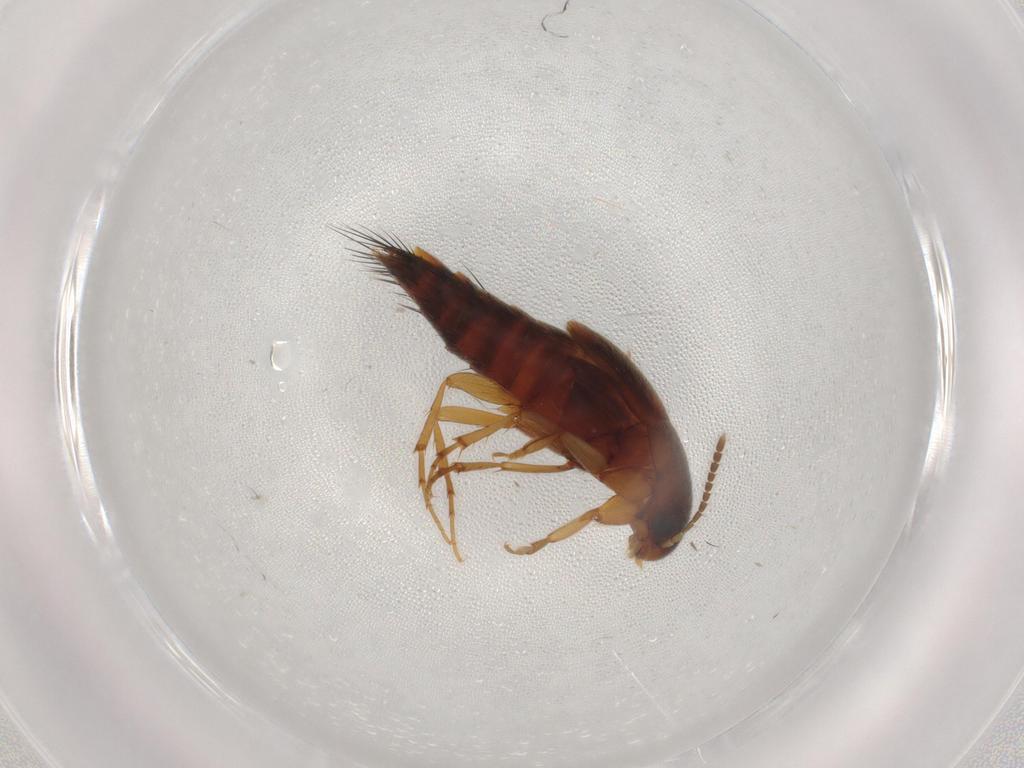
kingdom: Animalia
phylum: Arthropoda
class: Insecta
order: Coleoptera
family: Staphylinidae
